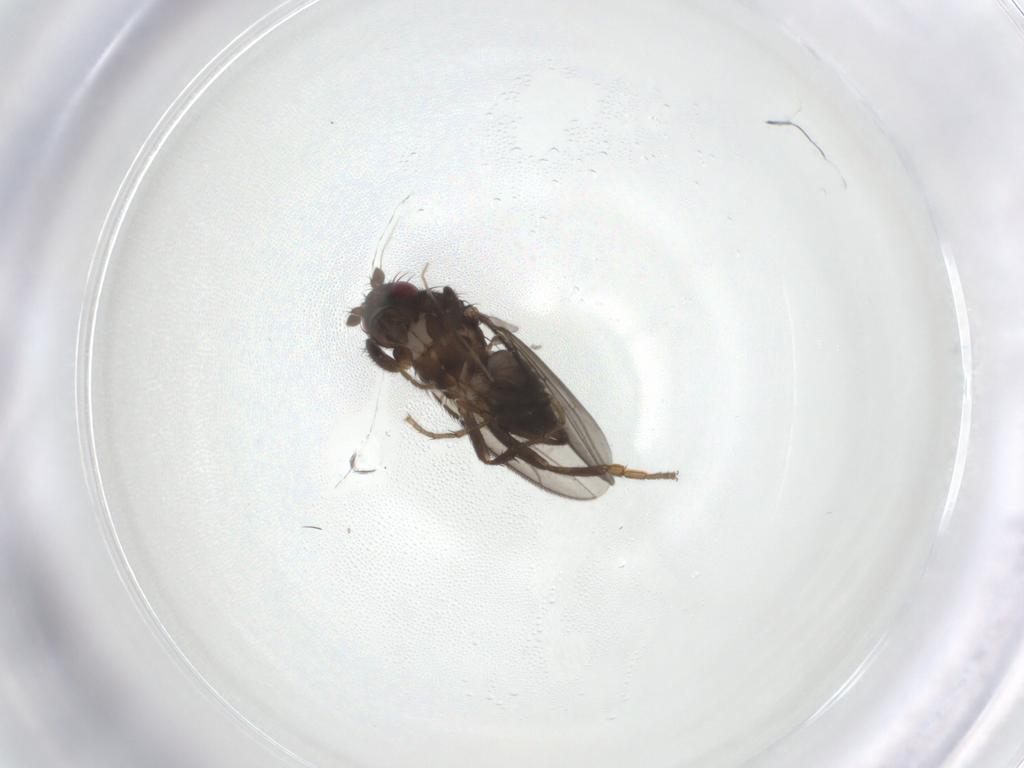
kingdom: Animalia
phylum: Arthropoda
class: Insecta
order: Diptera
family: Chironomidae
